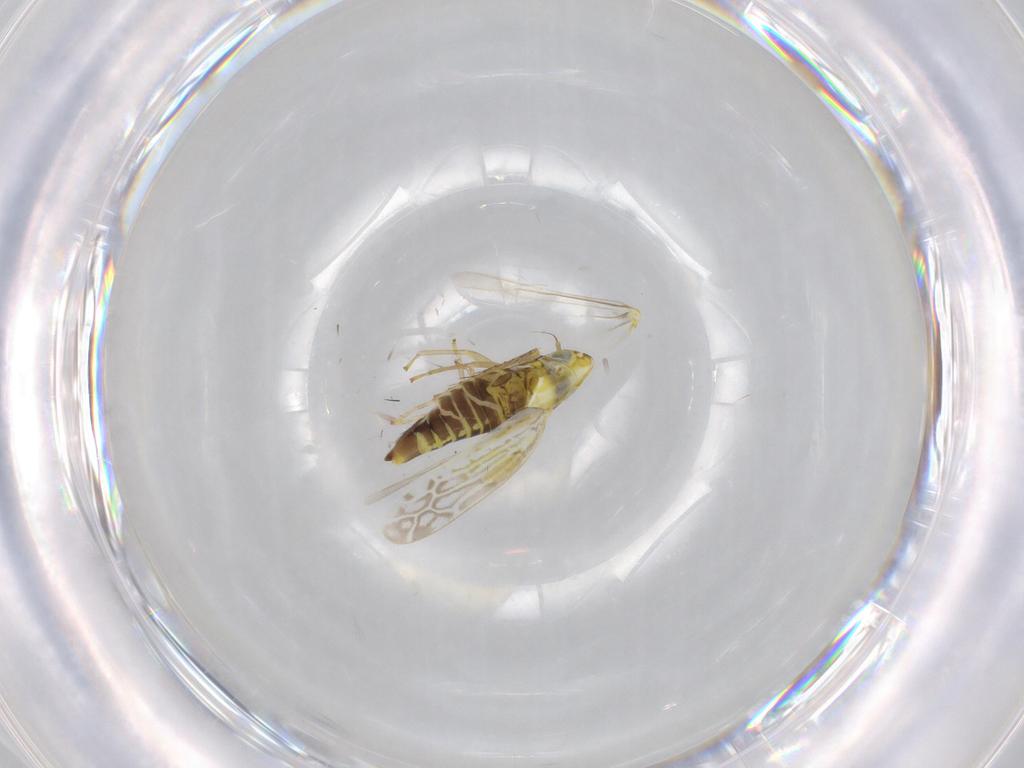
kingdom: Animalia
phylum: Arthropoda
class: Insecta
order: Hemiptera
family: Cicadellidae
